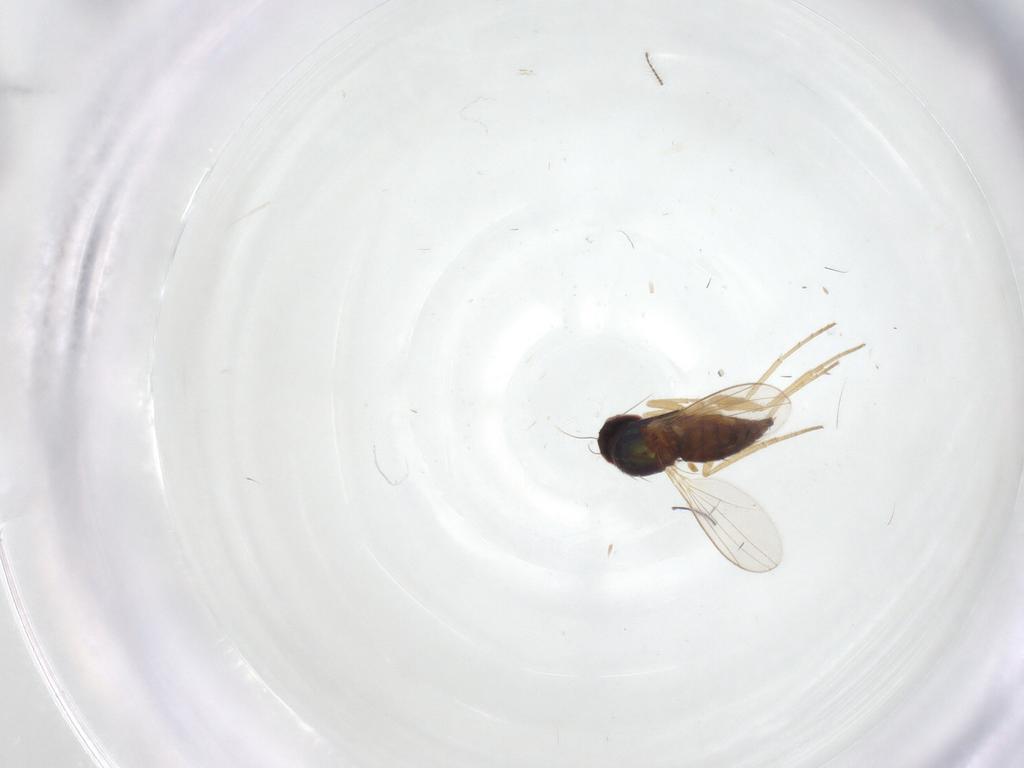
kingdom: Animalia
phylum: Arthropoda
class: Insecta
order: Diptera
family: Dolichopodidae
